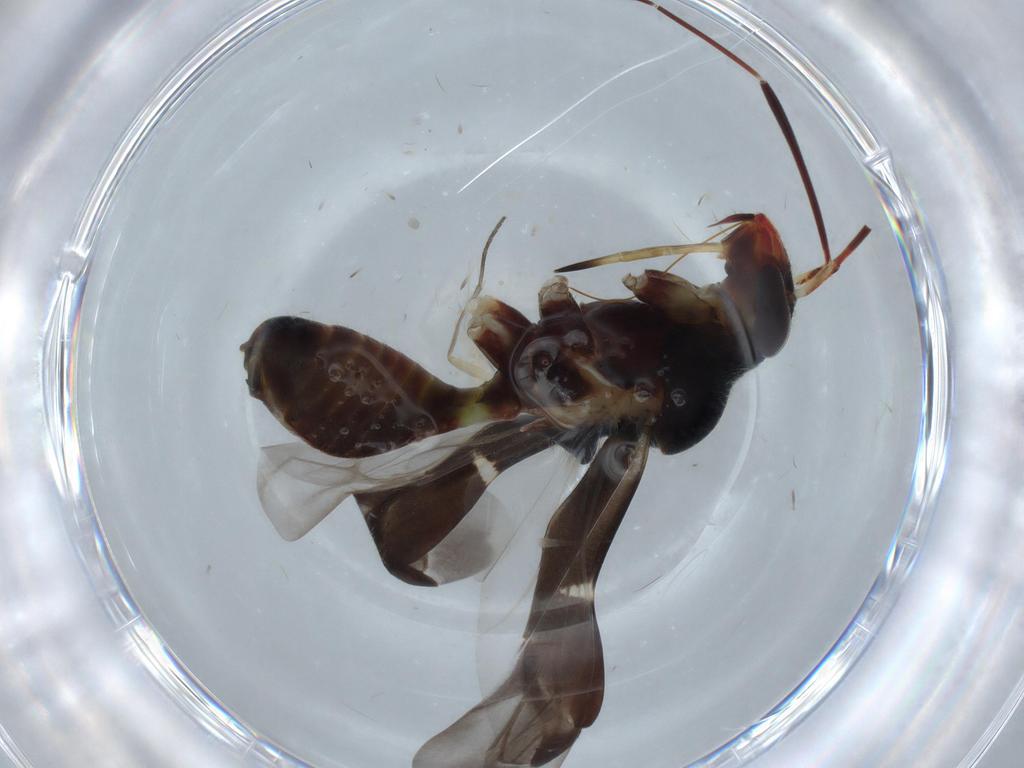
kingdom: Animalia
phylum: Arthropoda
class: Insecta
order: Hemiptera
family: Miridae
